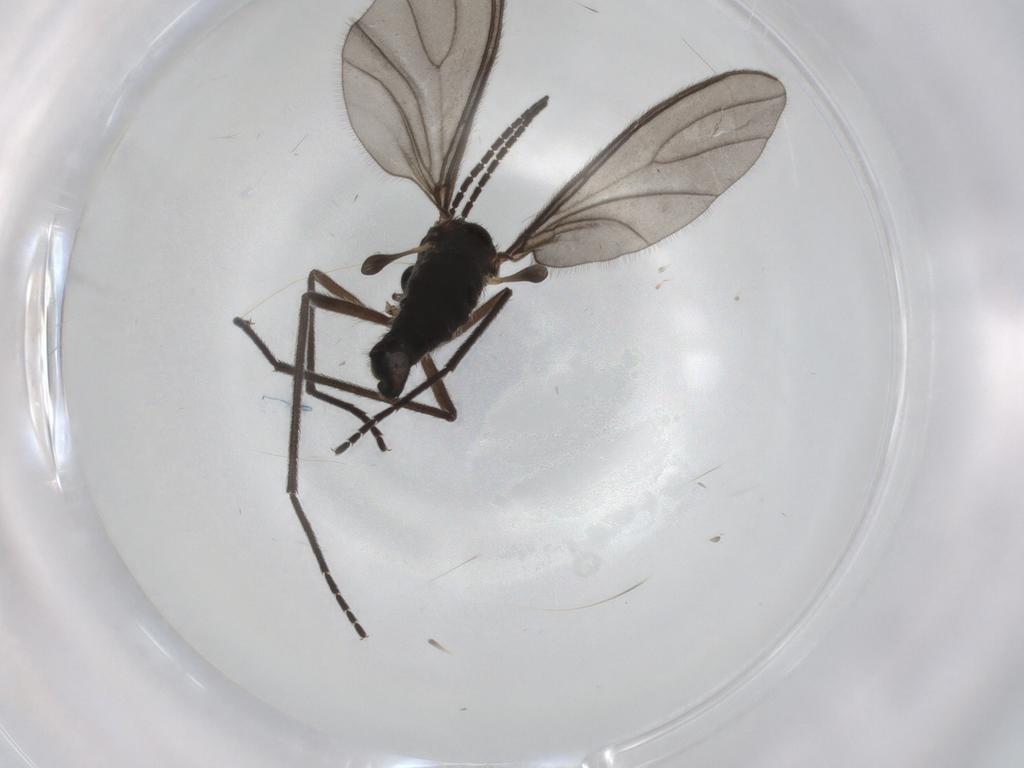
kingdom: Animalia
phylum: Arthropoda
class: Insecta
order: Diptera
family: Sciaridae
